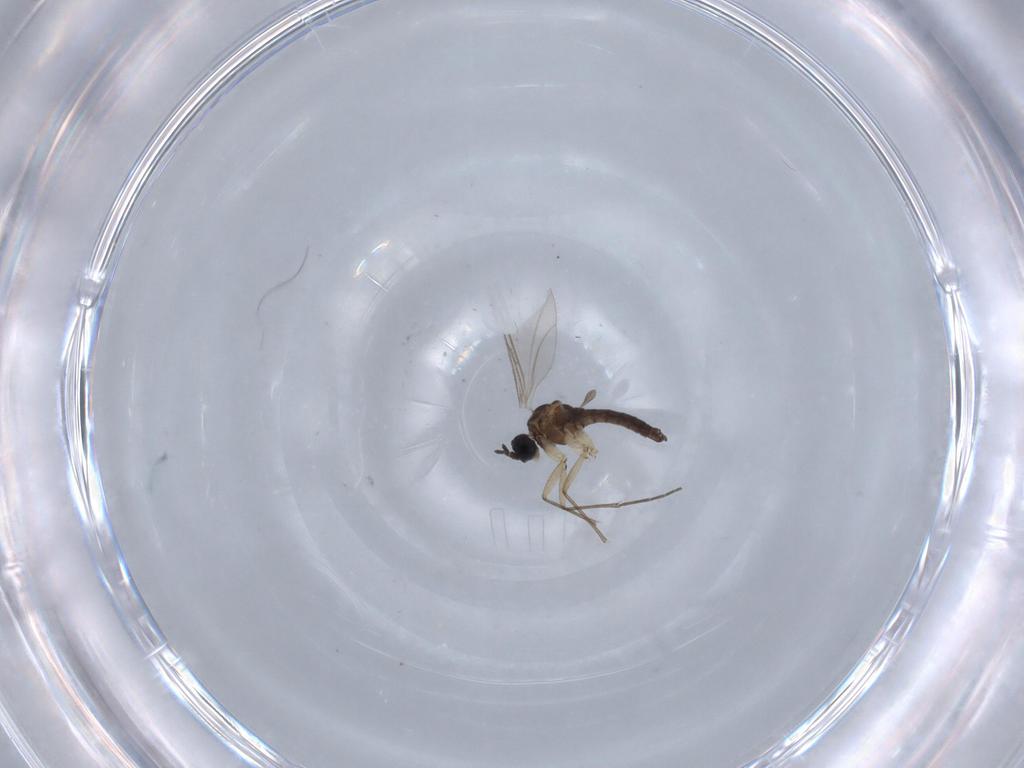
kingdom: Animalia
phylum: Arthropoda
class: Insecta
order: Diptera
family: Sciaridae
